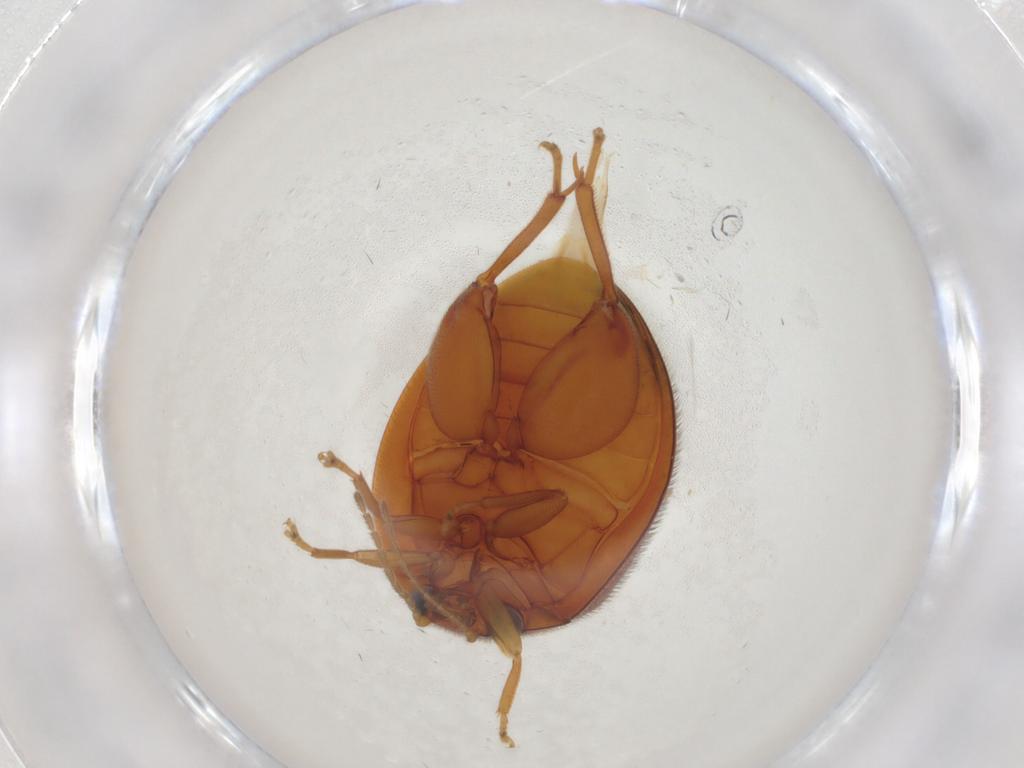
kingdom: Animalia
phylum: Arthropoda
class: Insecta
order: Coleoptera
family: Scirtidae
